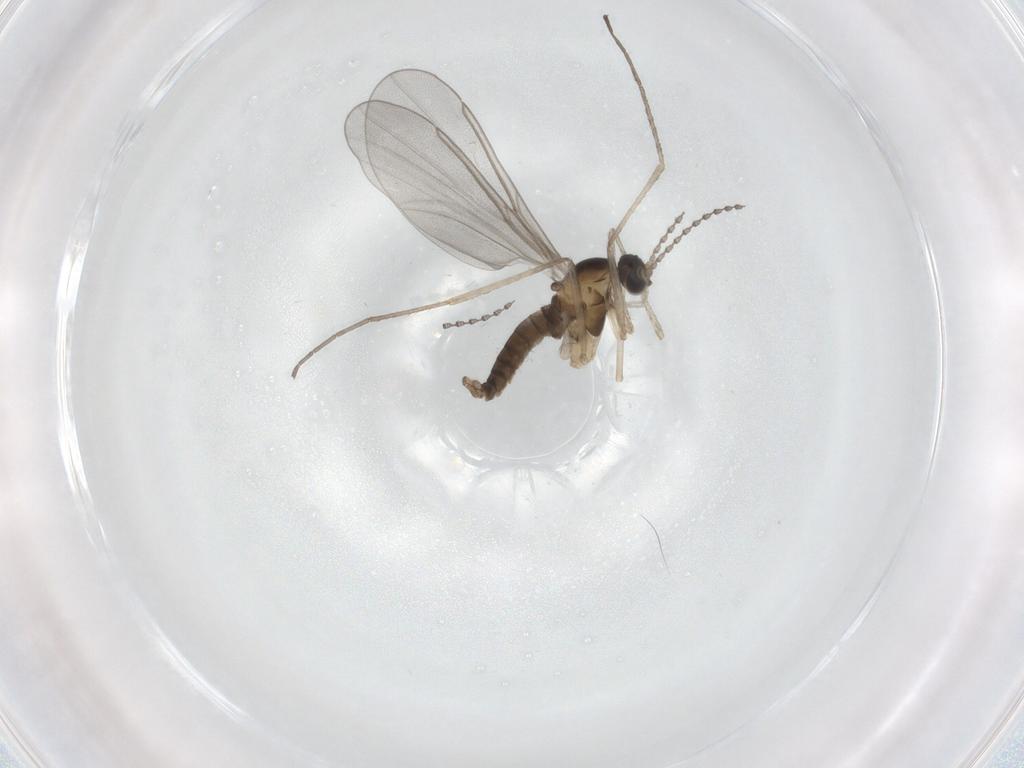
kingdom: Animalia
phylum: Arthropoda
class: Insecta
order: Diptera
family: Cecidomyiidae
